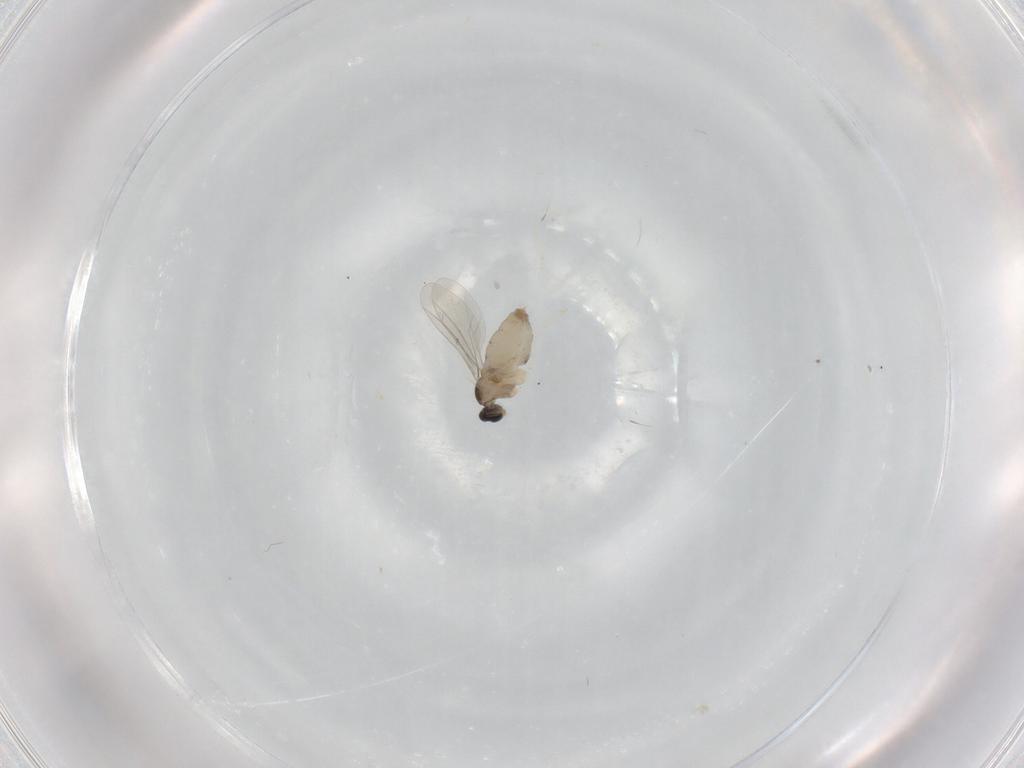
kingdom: Animalia
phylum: Arthropoda
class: Insecta
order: Diptera
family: Cecidomyiidae
